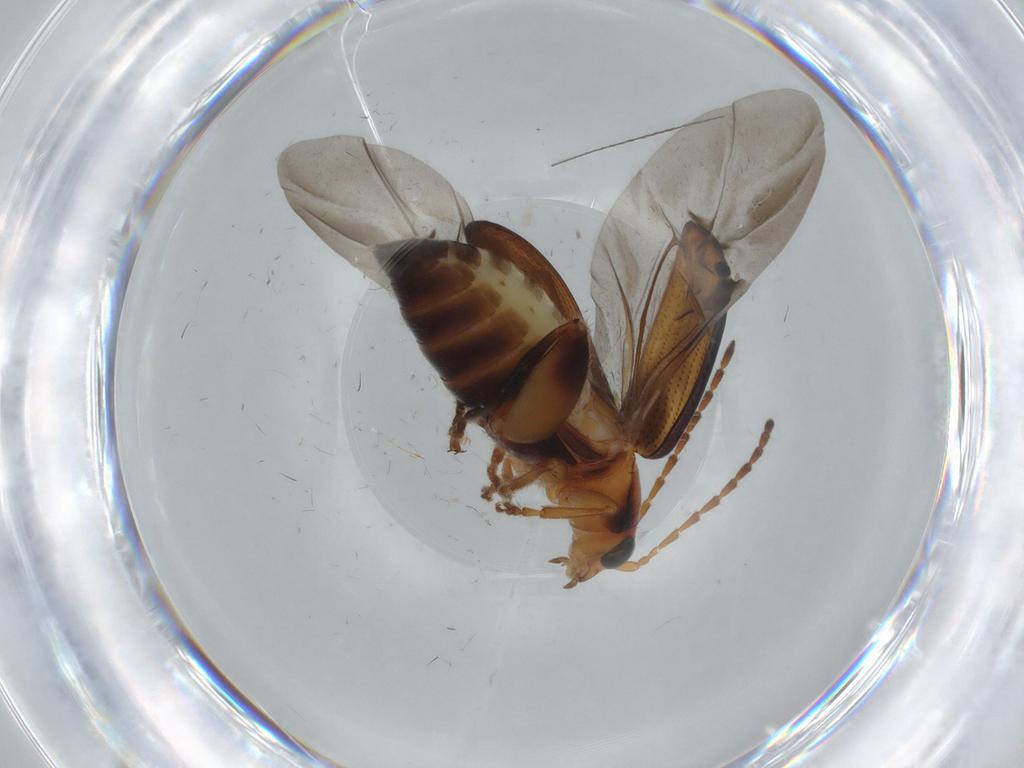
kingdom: Animalia
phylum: Arthropoda
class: Insecta
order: Coleoptera
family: Chrysomelidae
